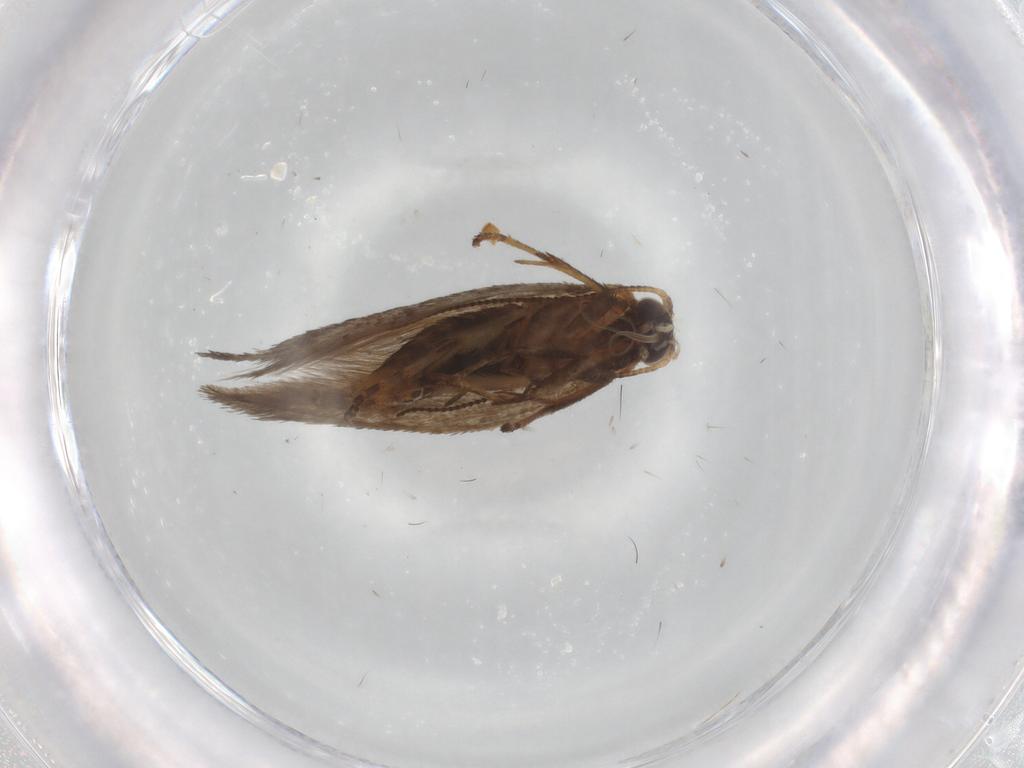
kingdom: Animalia
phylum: Arthropoda
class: Insecta
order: Lepidoptera
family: Nepticulidae
